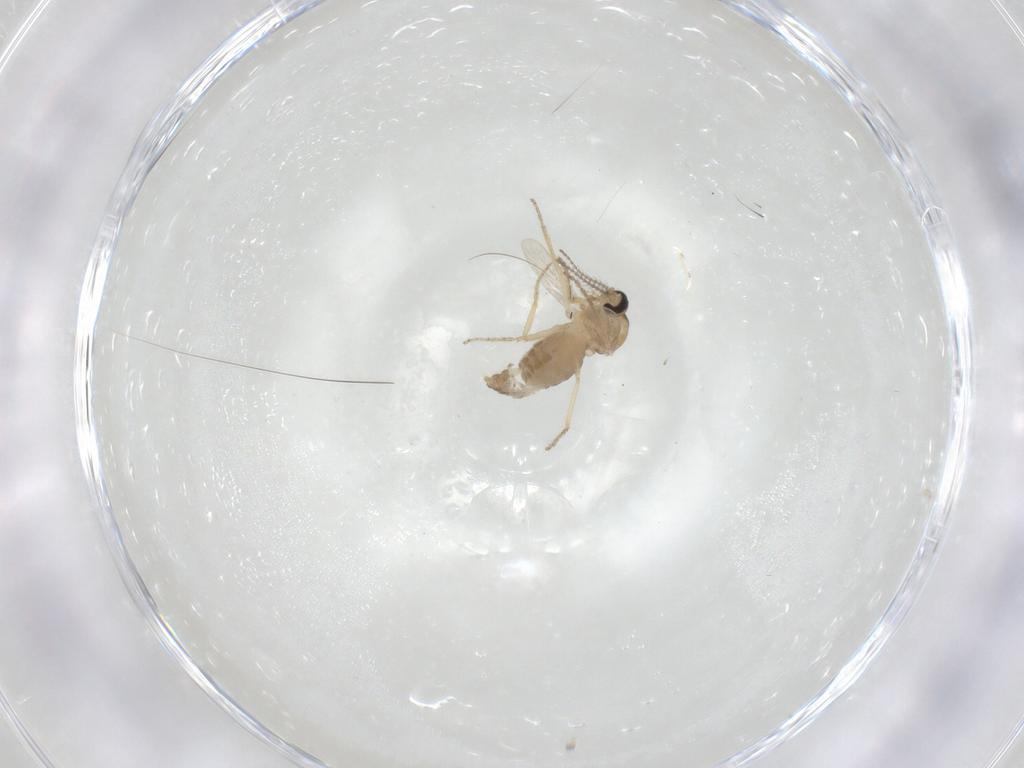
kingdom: Animalia
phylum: Arthropoda
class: Insecta
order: Diptera
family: Ceratopogonidae
